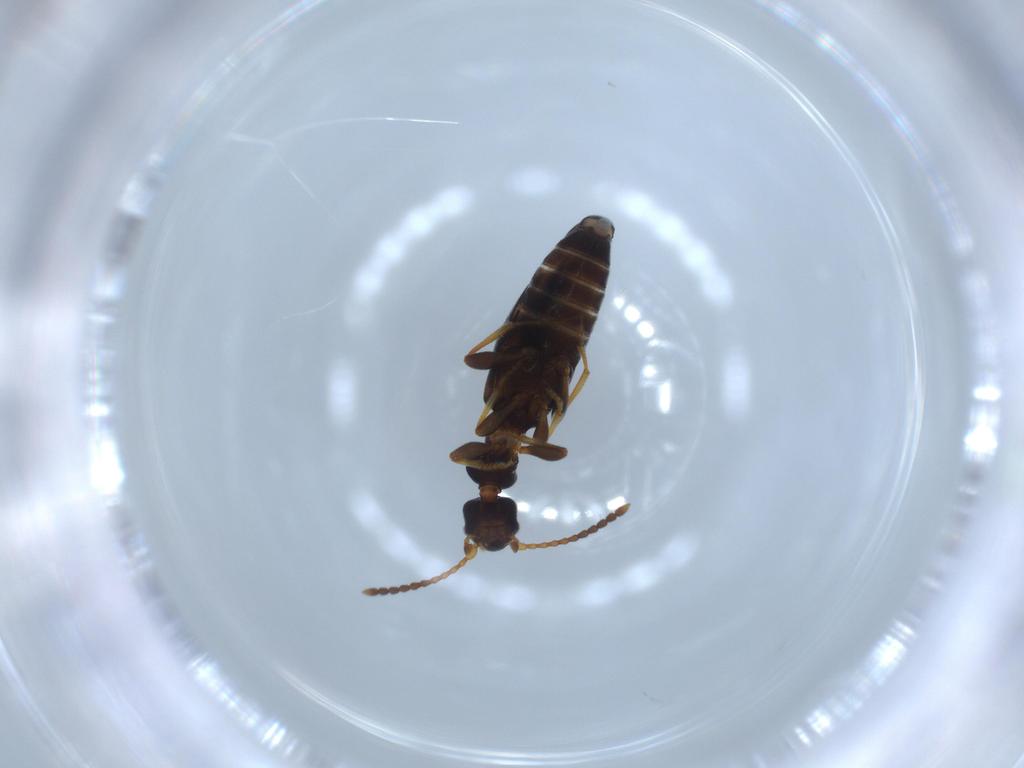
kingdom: Animalia
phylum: Arthropoda
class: Insecta
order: Coleoptera
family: Anthicidae
